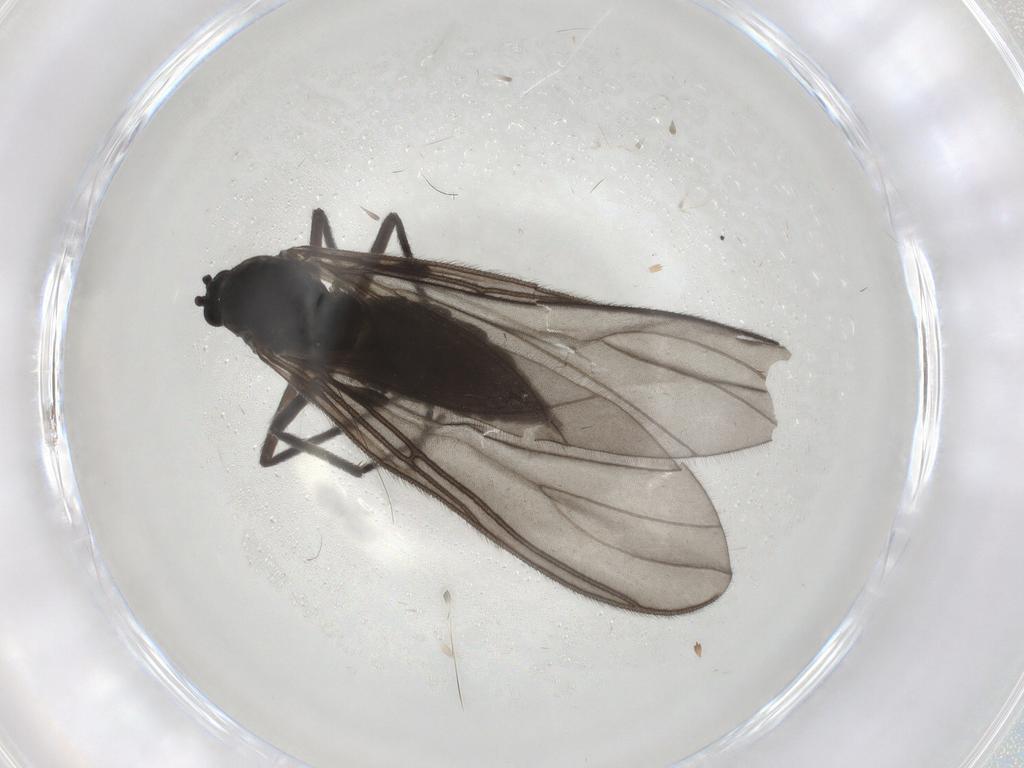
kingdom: Animalia
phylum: Arthropoda
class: Insecta
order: Diptera
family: Sciaridae
